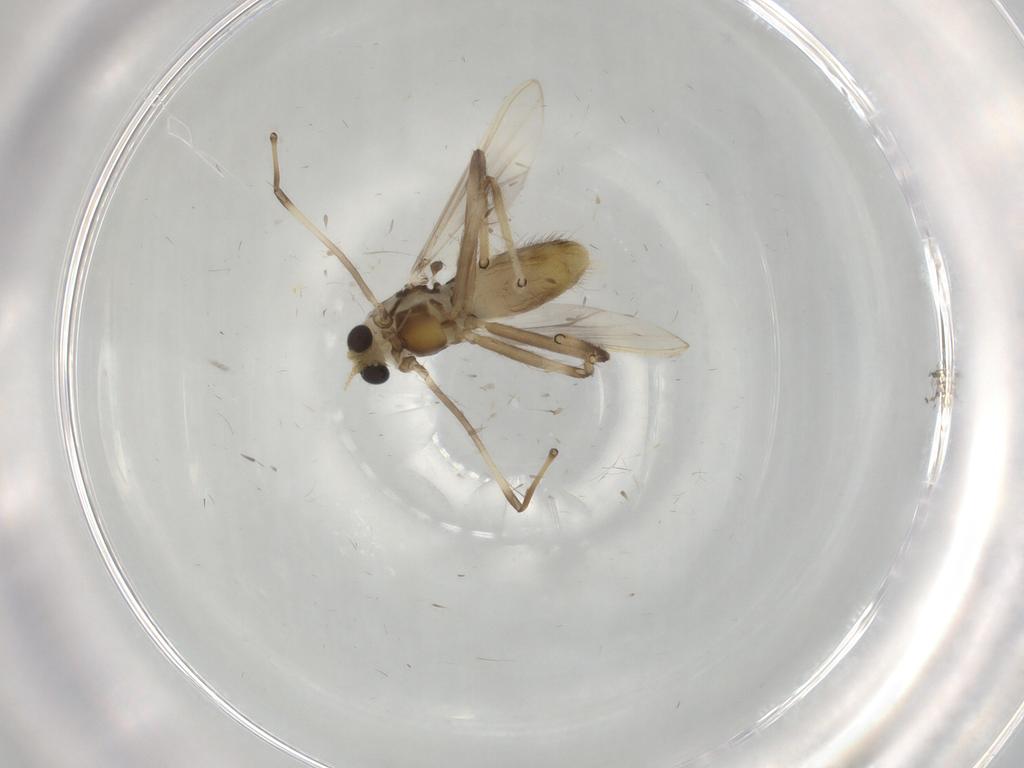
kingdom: Animalia
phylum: Arthropoda
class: Insecta
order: Diptera
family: Chironomidae
